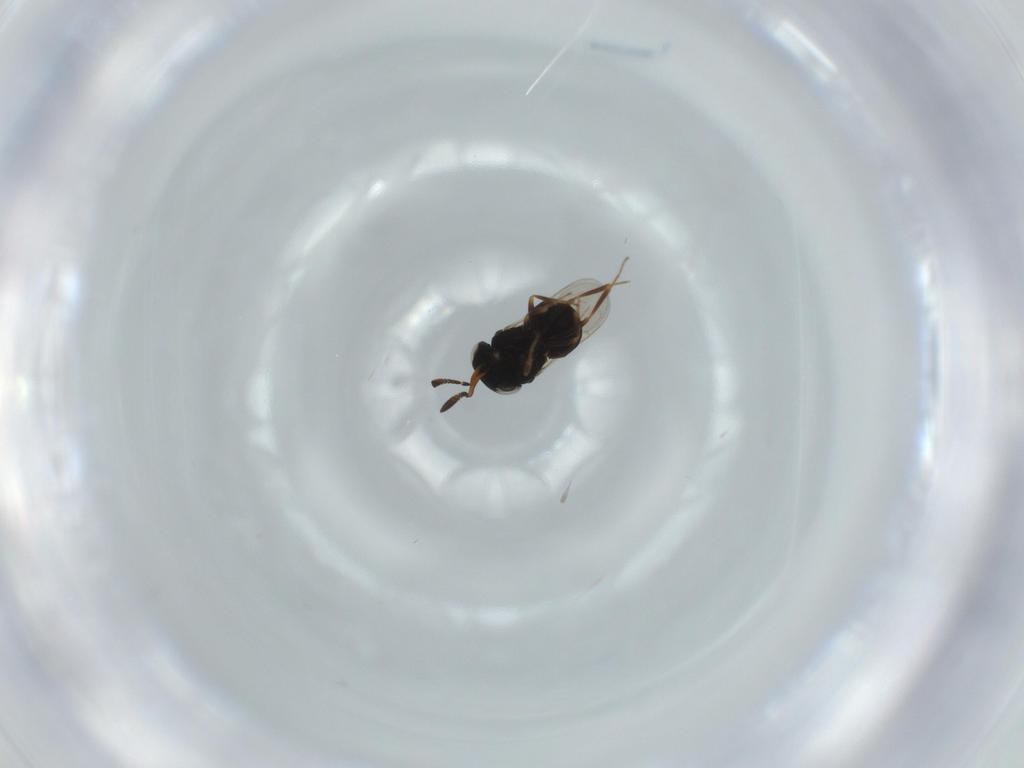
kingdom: Animalia
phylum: Arthropoda
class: Insecta
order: Hymenoptera
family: Scelionidae
